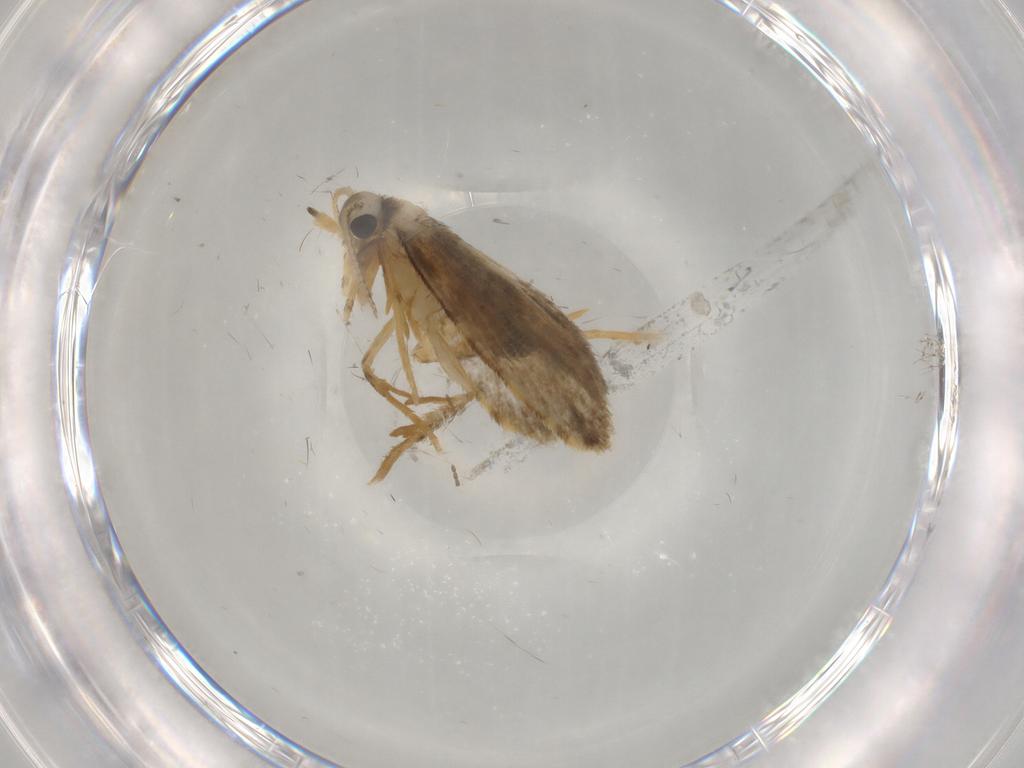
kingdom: Animalia
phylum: Arthropoda
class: Insecta
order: Lepidoptera
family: Psychidae
